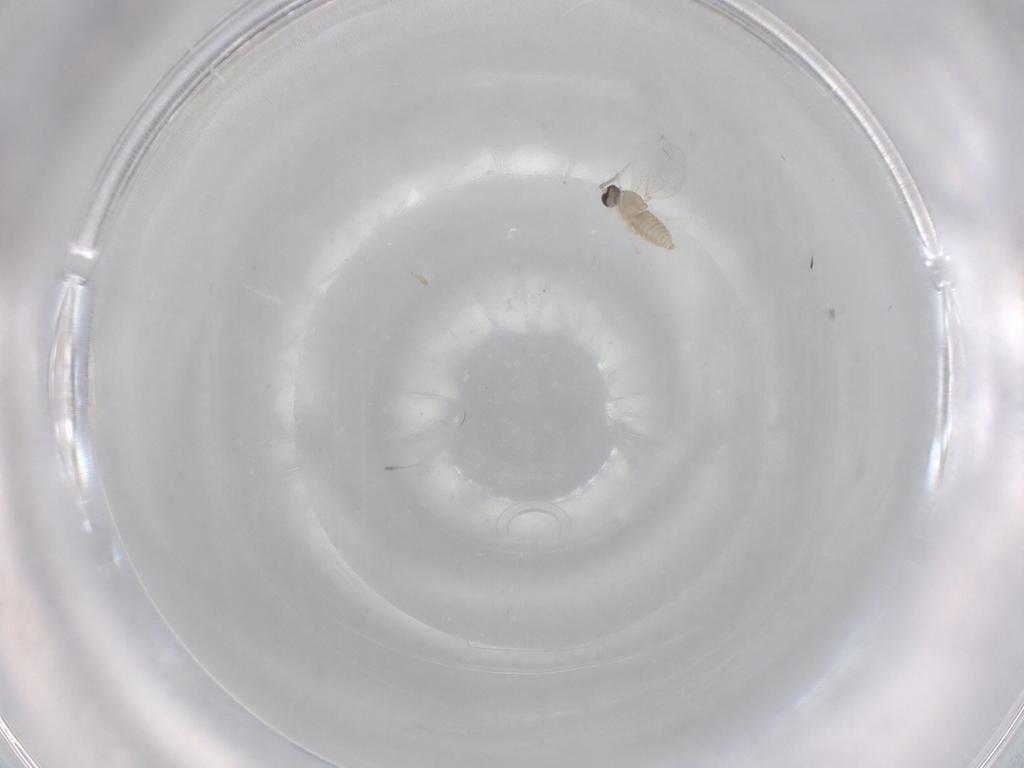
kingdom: Animalia
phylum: Arthropoda
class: Insecta
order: Diptera
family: Cecidomyiidae
